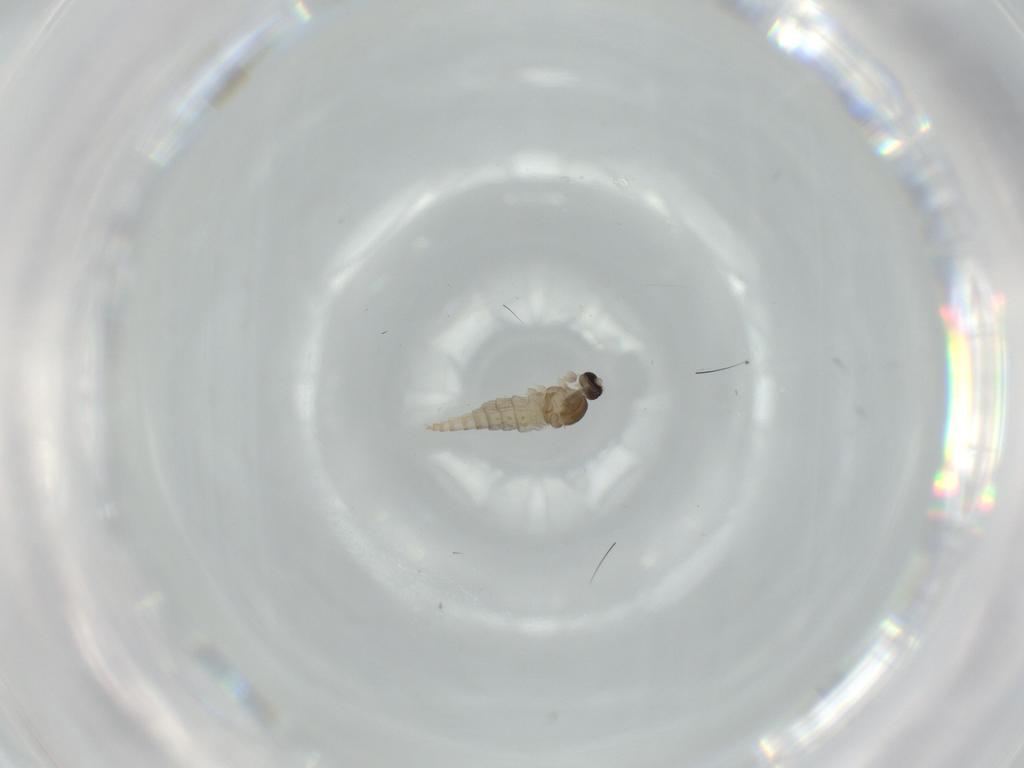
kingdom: Animalia
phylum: Arthropoda
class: Insecta
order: Diptera
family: Cecidomyiidae
